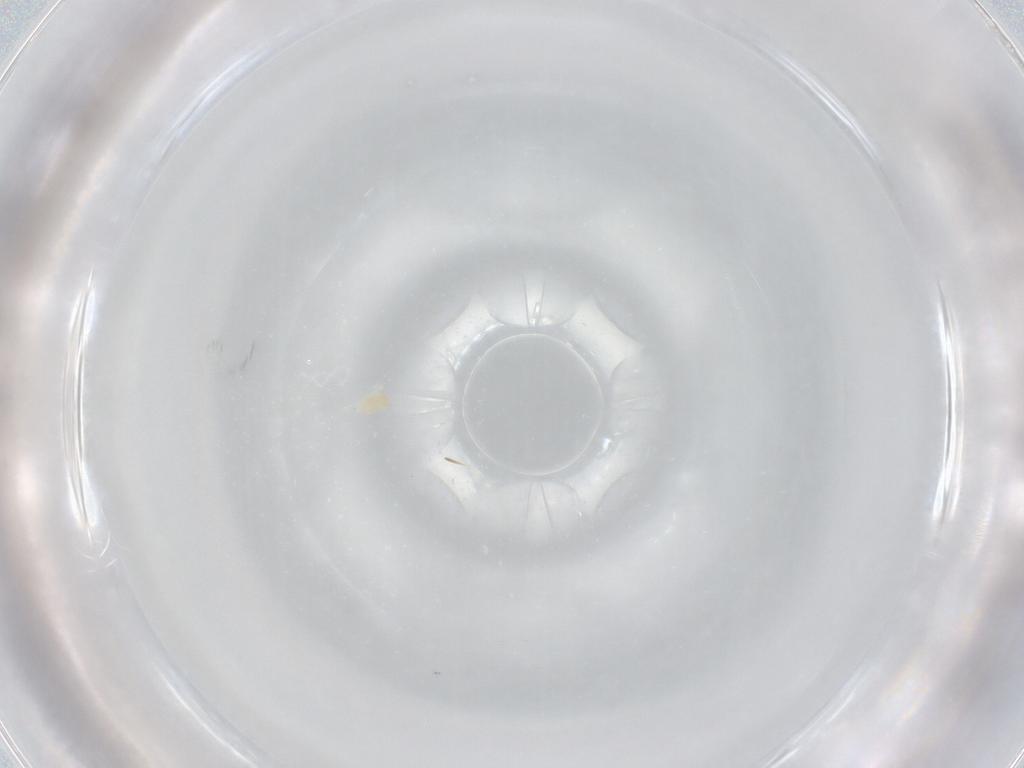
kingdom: Animalia
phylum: Arthropoda
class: Arachnida
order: Trombidiformes
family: Eupodidae
